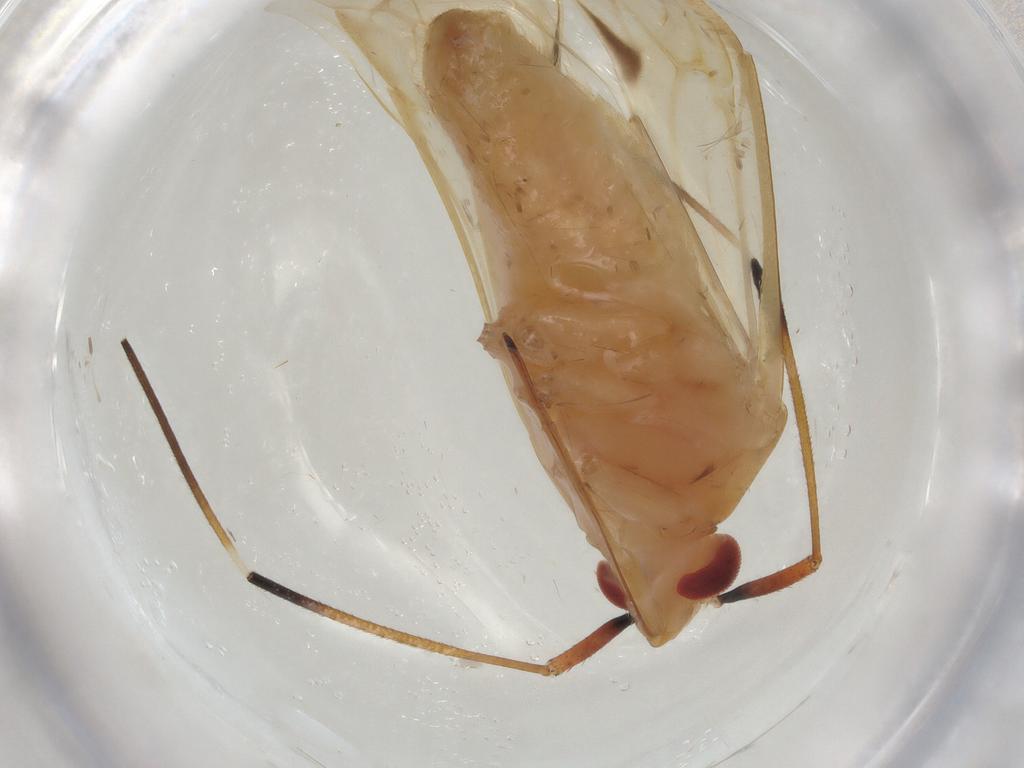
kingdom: Animalia
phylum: Arthropoda
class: Insecta
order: Hemiptera
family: Miridae
